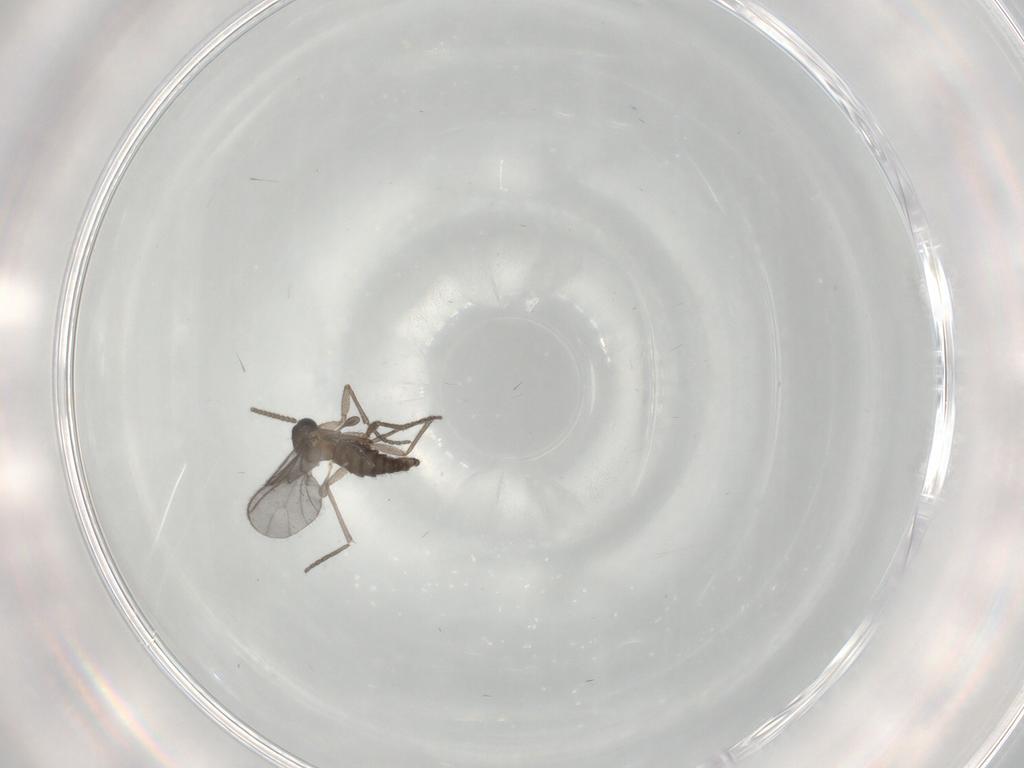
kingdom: Animalia
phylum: Arthropoda
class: Insecta
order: Diptera
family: Sciaridae
